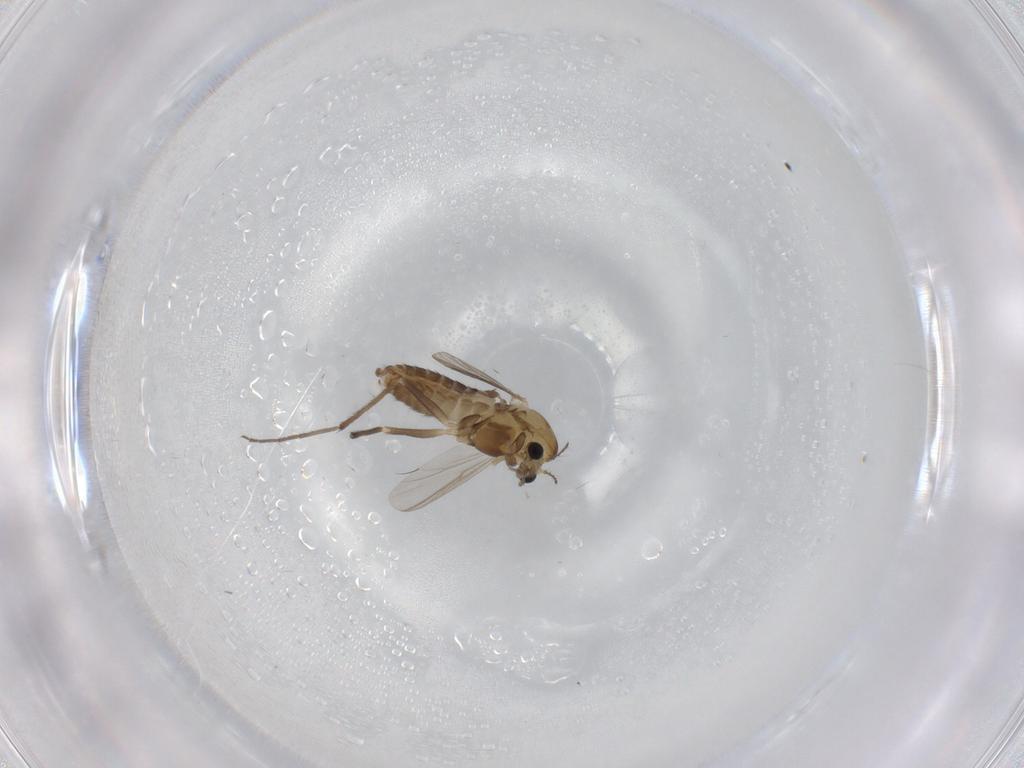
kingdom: Animalia
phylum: Arthropoda
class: Insecta
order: Diptera
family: Chironomidae
